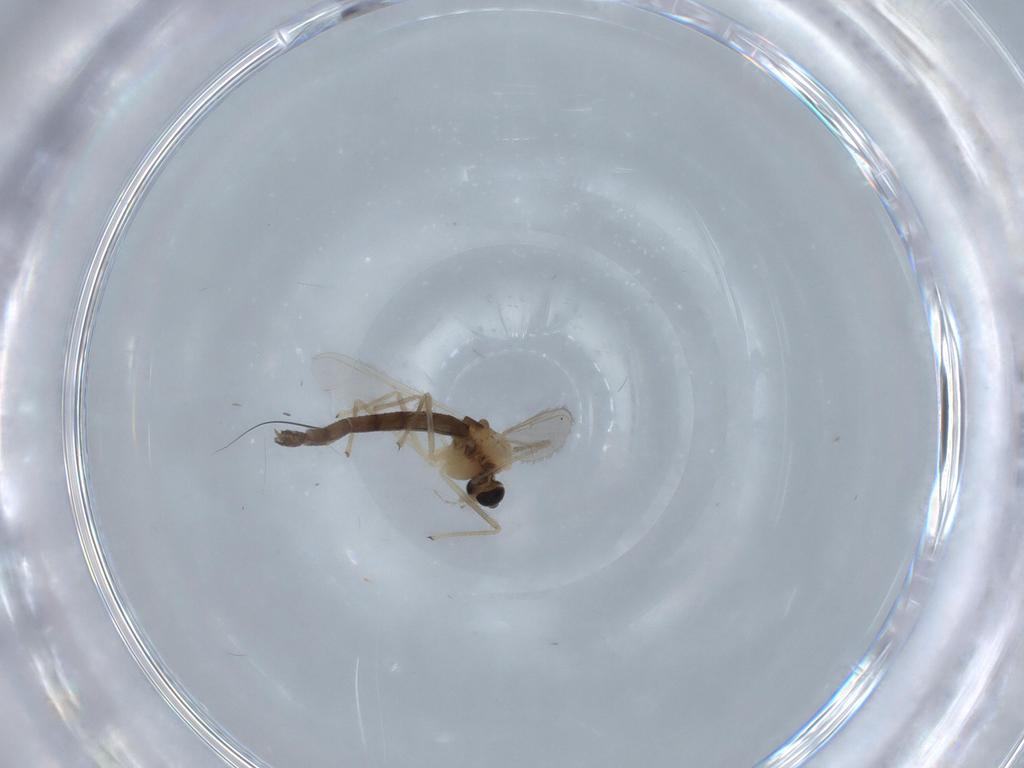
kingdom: Animalia
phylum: Arthropoda
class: Insecta
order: Diptera
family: Chironomidae
